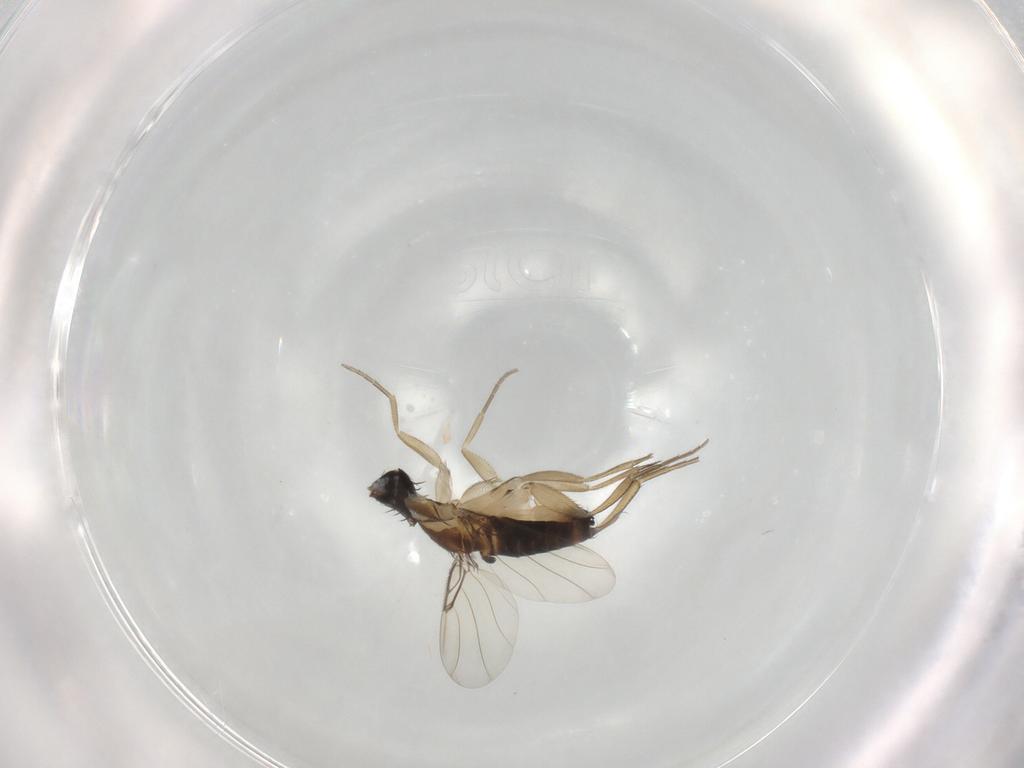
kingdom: Animalia
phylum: Arthropoda
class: Insecta
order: Diptera
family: Phoridae
